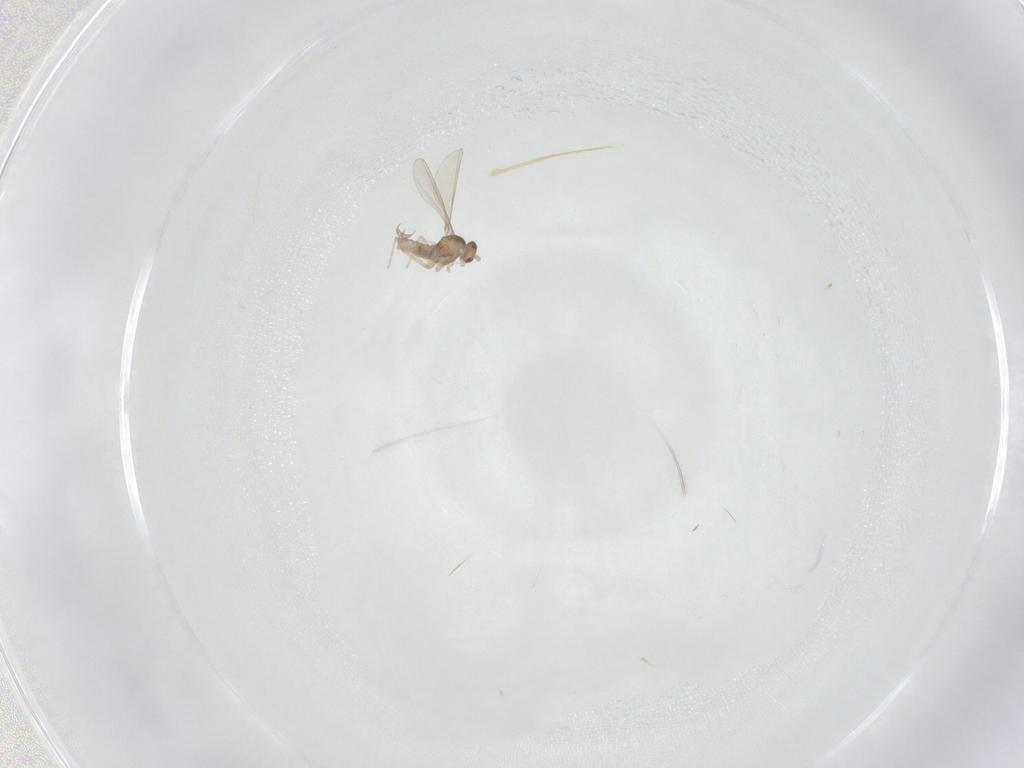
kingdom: Animalia
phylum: Arthropoda
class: Insecta
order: Diptera
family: Cecidomyiidae
